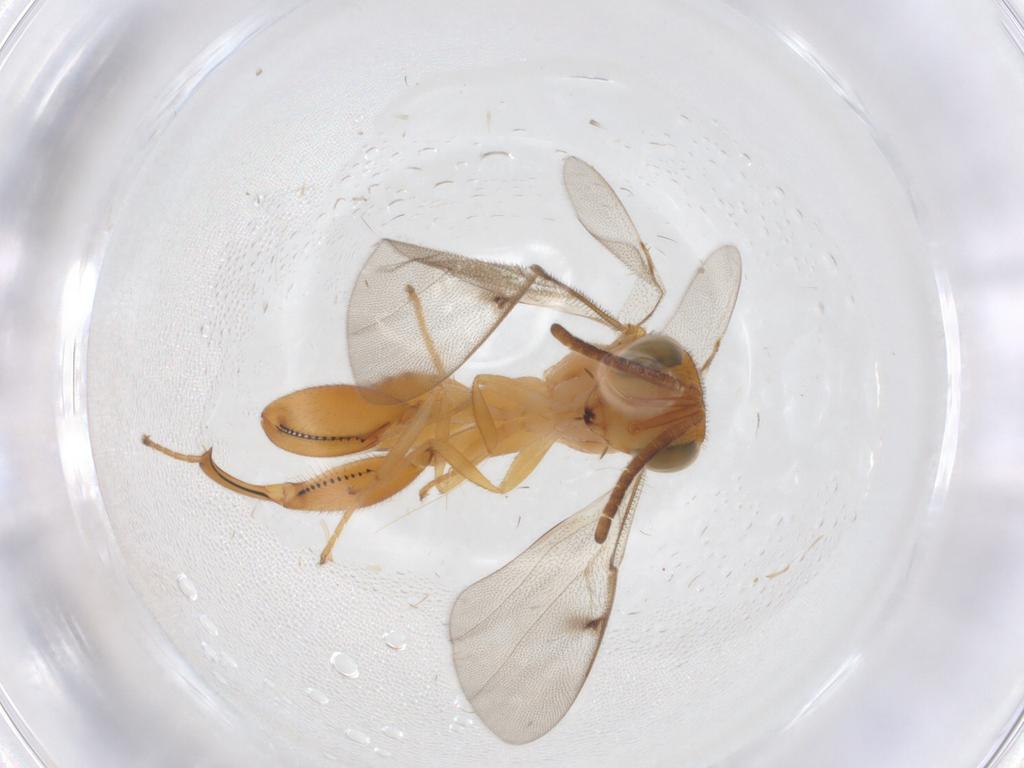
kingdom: Animalia
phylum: Arthropoda
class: Insecta
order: Hymenoptera
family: Chalcididae
